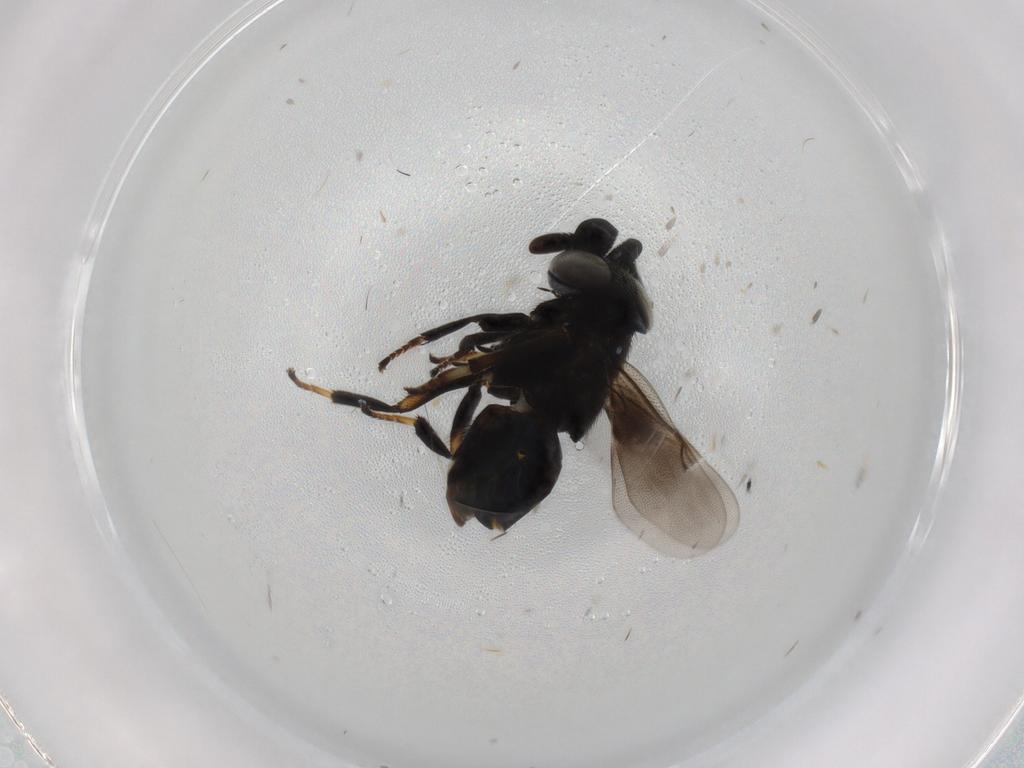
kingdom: Animalia
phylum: Arthropoda
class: Insecta
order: Hymenoptera
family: Encyrtidae
